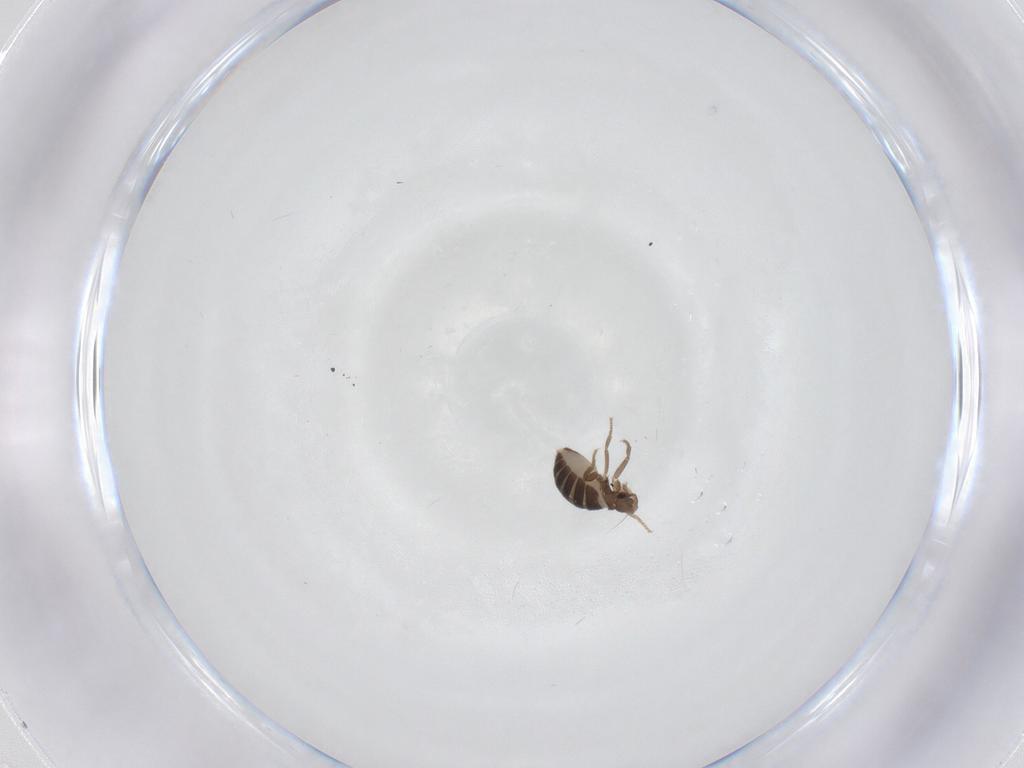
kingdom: Animalia
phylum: Arthropoda
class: Insecta
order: Diptera
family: Phoridae
